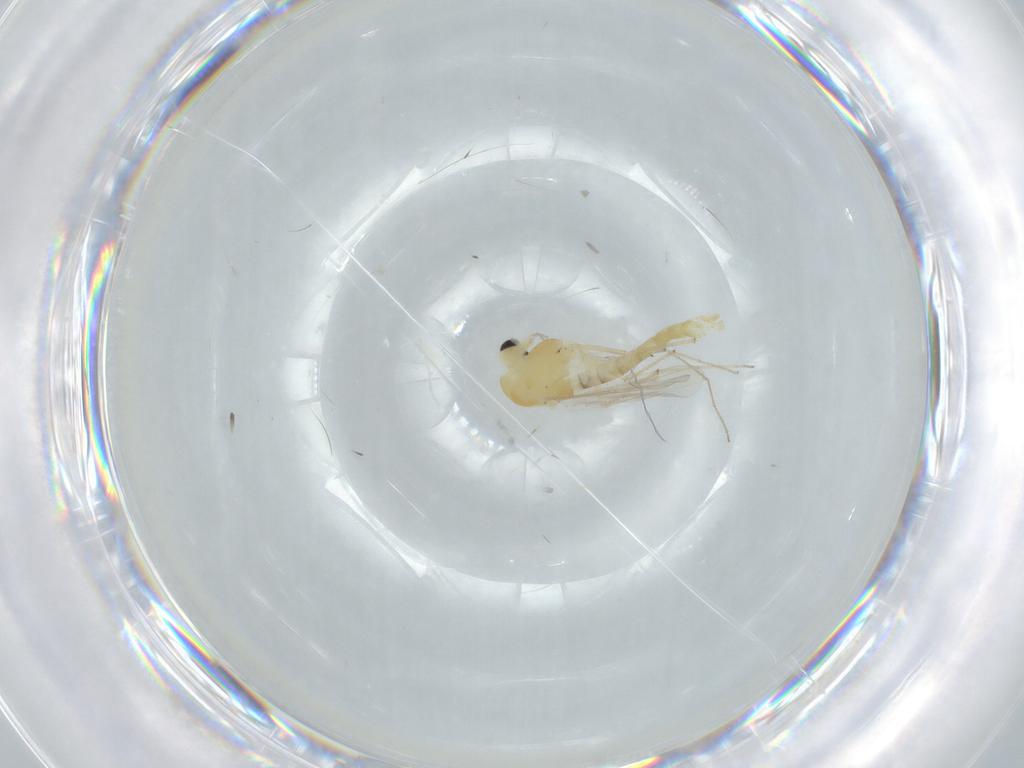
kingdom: Animalia
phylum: Arthropoda
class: Insecta
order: Diptera
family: Chironomidae
